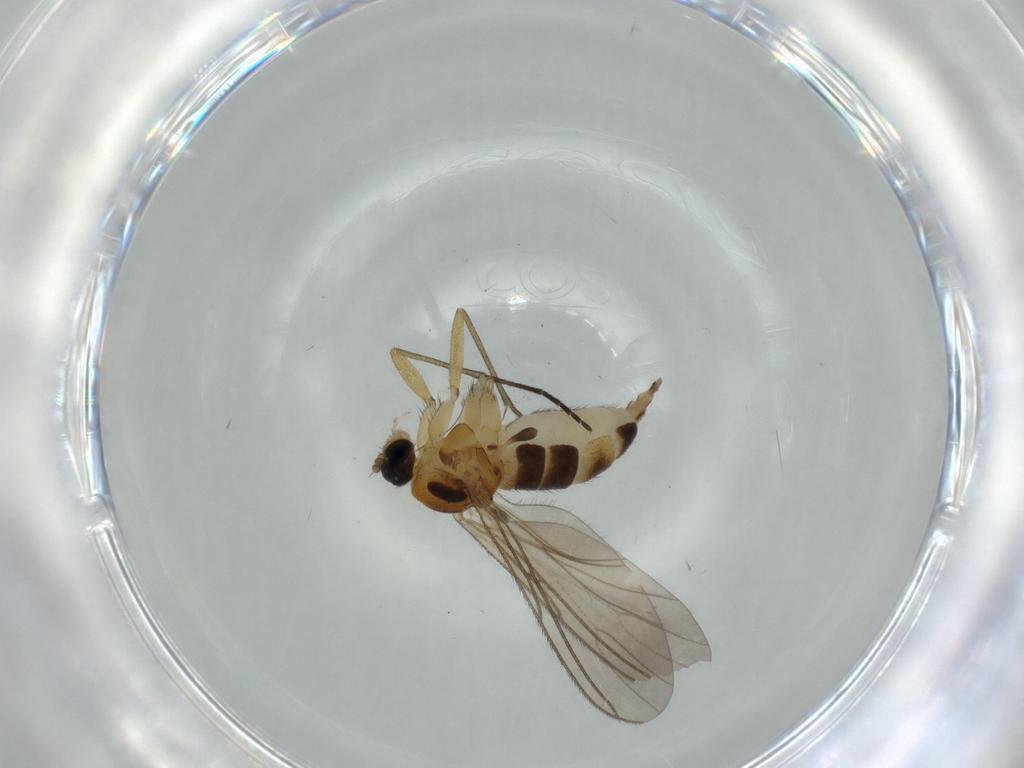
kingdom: Animalia
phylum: Arthropoda
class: Insecta
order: Diptera
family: Sciaridae
